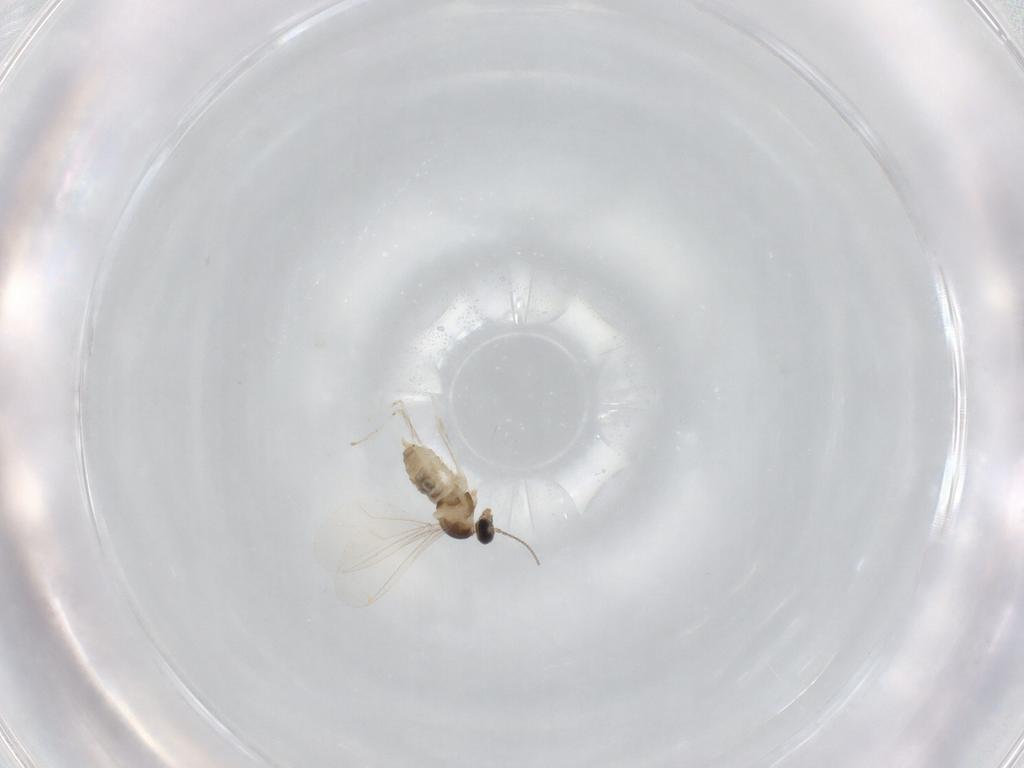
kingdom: Animalia
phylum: Arthropoda
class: Insecta
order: Diptera
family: Cecidomyiidae
